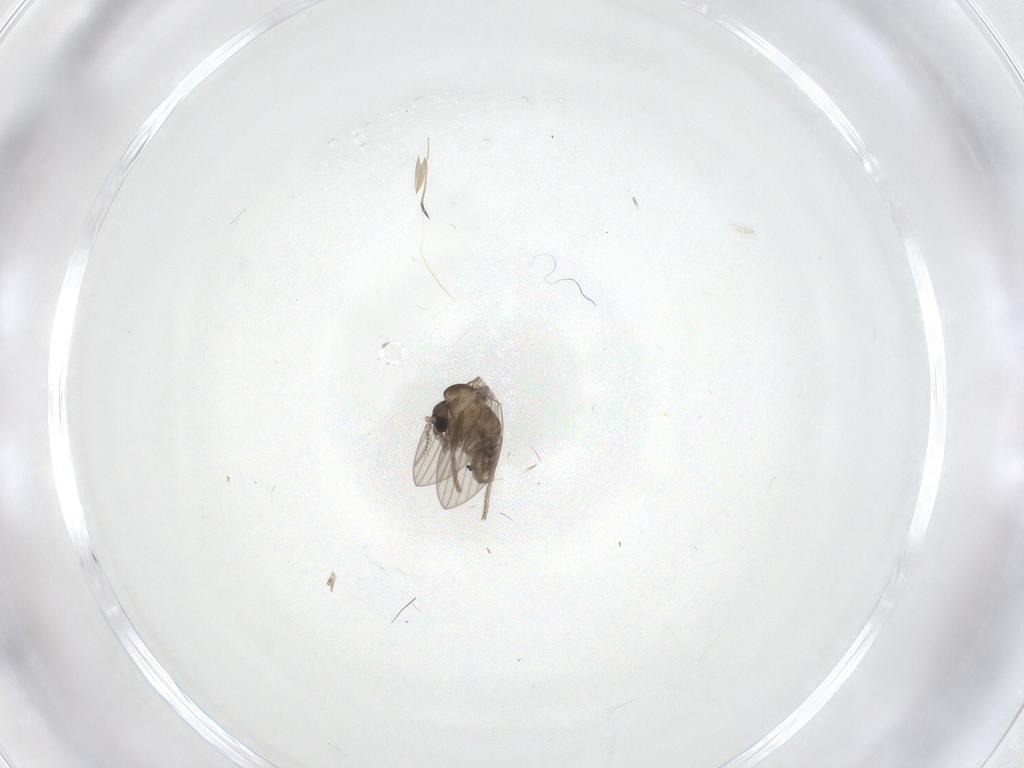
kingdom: Animalia
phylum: Arthropoda
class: Insecta
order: Diptera
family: Psychodidae
